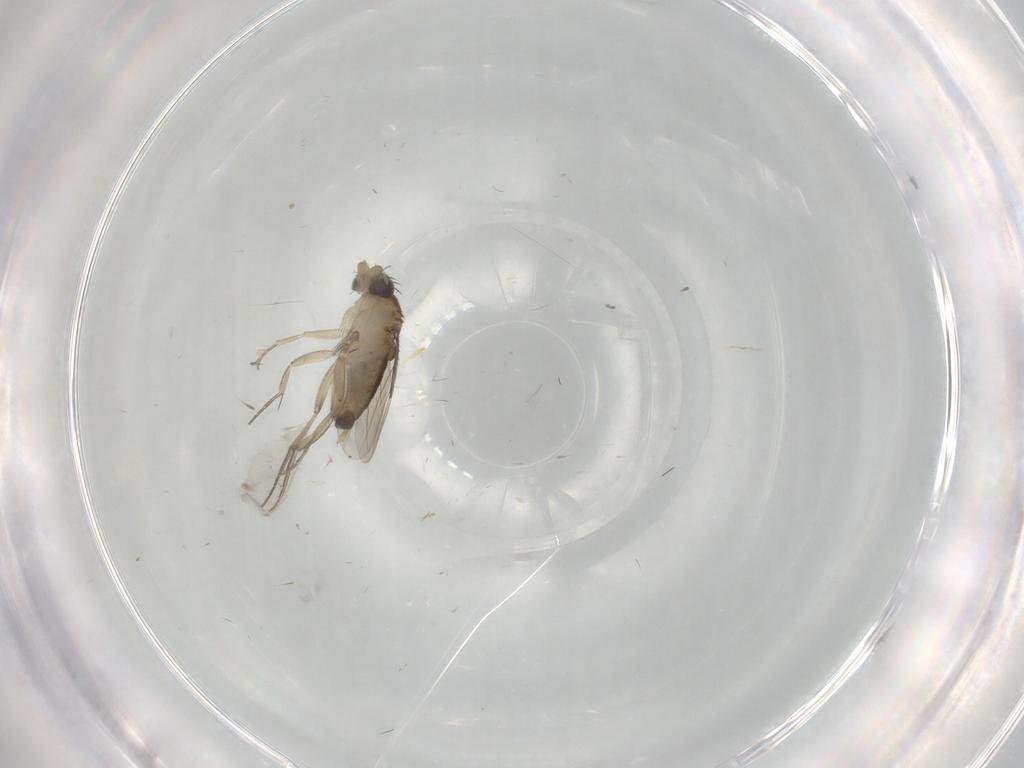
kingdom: Animalia
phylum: Arthropoda
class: Insecta
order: Diptera
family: Phoridae
